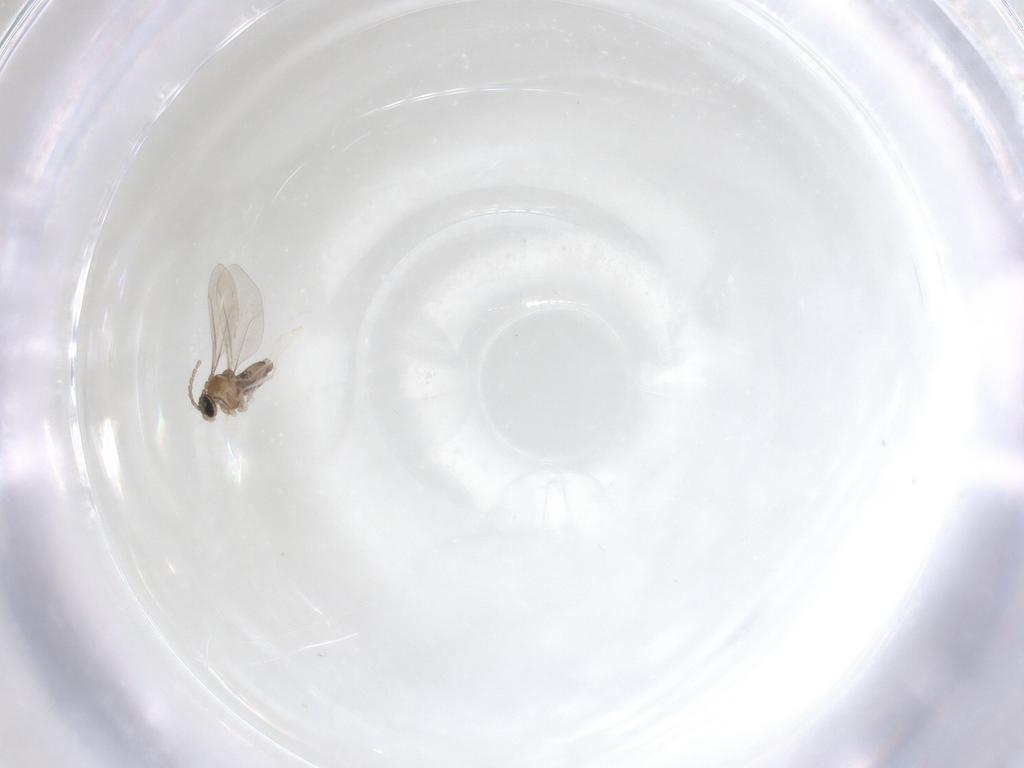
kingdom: Animalia
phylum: Arthropoda
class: Insecta
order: Diptera
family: Cecidomyiidae
